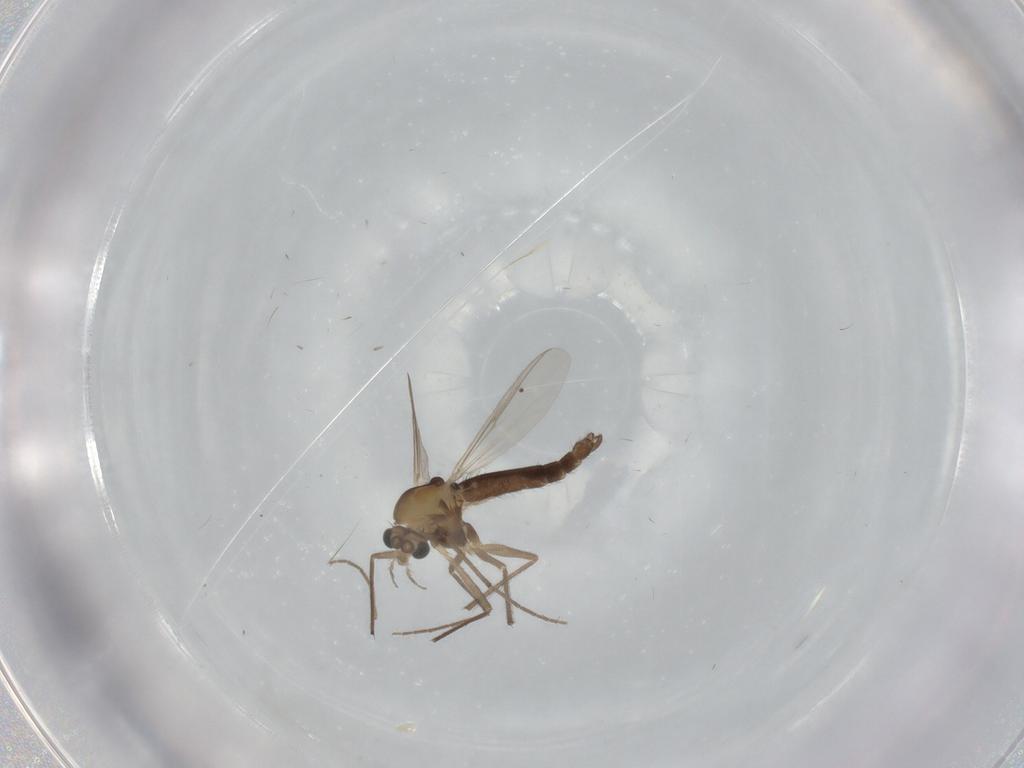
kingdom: Animalia
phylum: Arthropoda
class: Insecta
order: Diptera
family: Chironomidae
